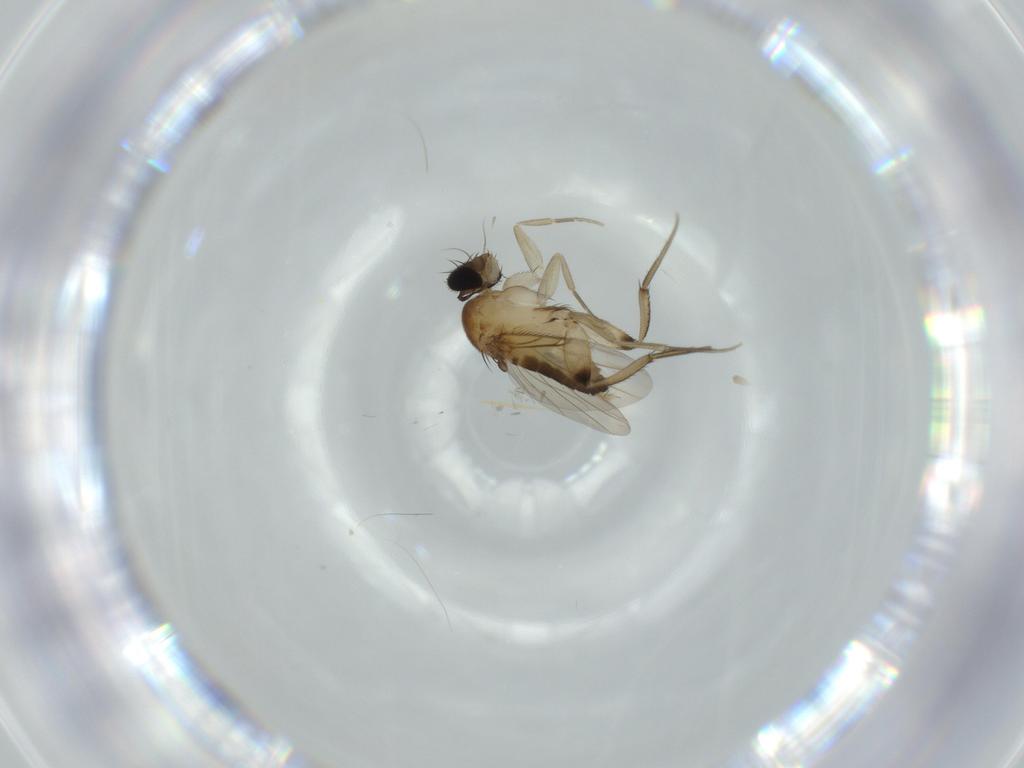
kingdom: Animalia
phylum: Arthropoda
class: Insecta
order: Diptera
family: Phoridae
